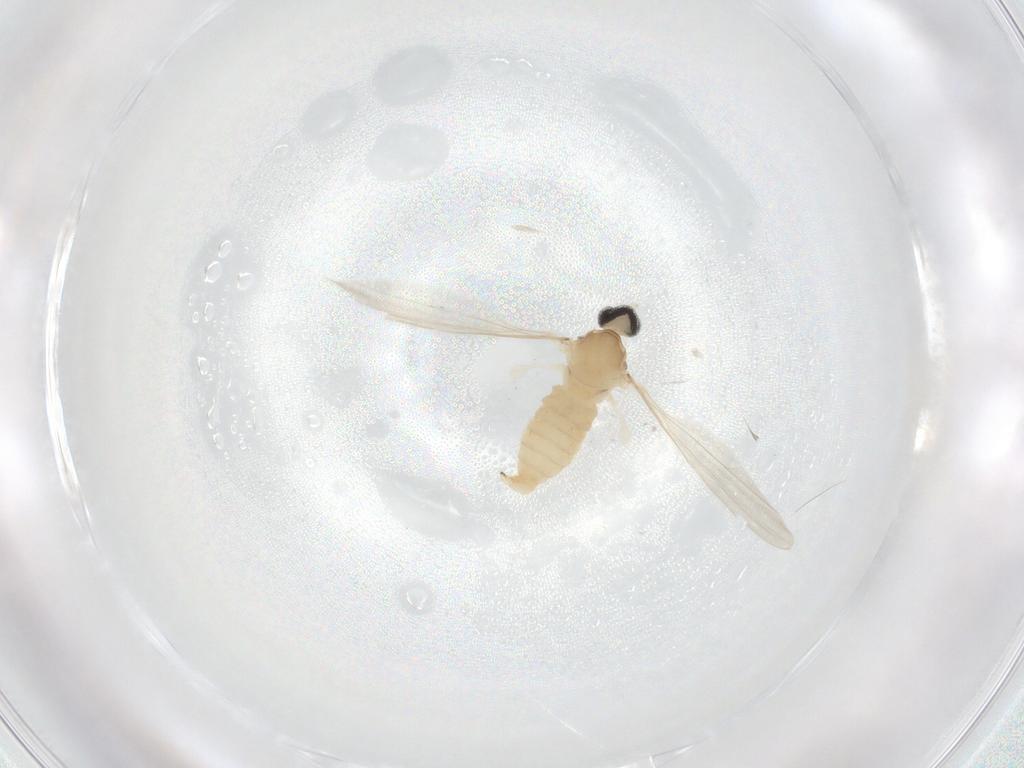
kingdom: Animalia
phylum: Arthropoda
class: Insecta
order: Diptera
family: Cecidomyiidae
